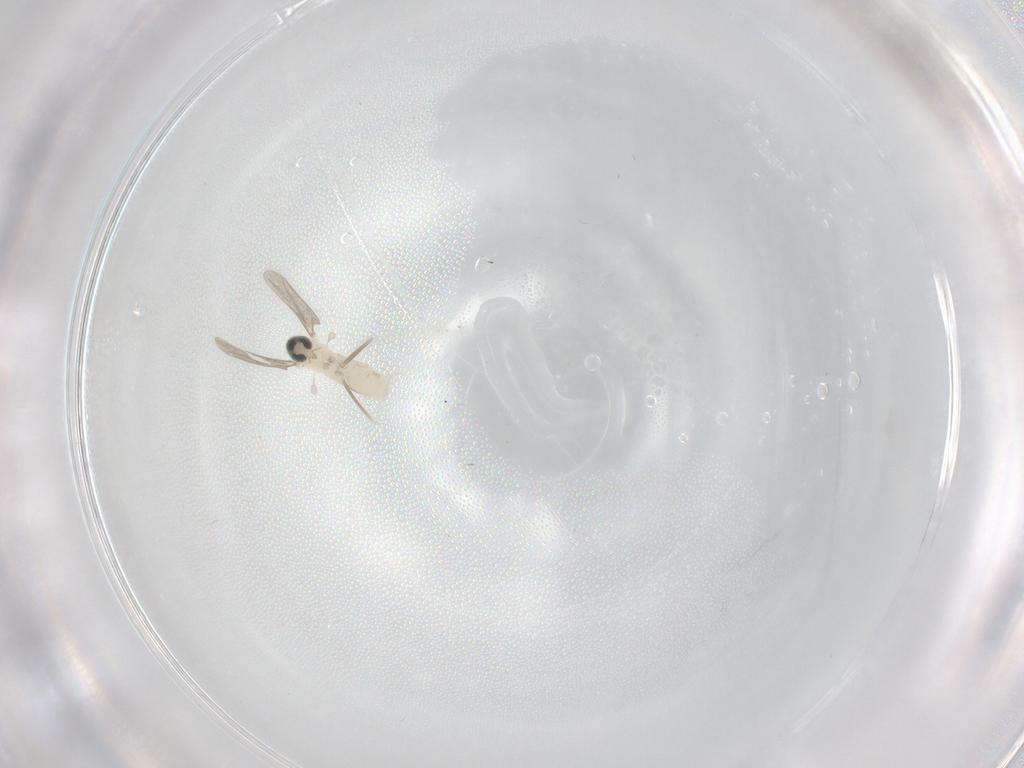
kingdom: Animalia
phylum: Arthropoda
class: Insecta
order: Diptera
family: Cecidomyiidae
